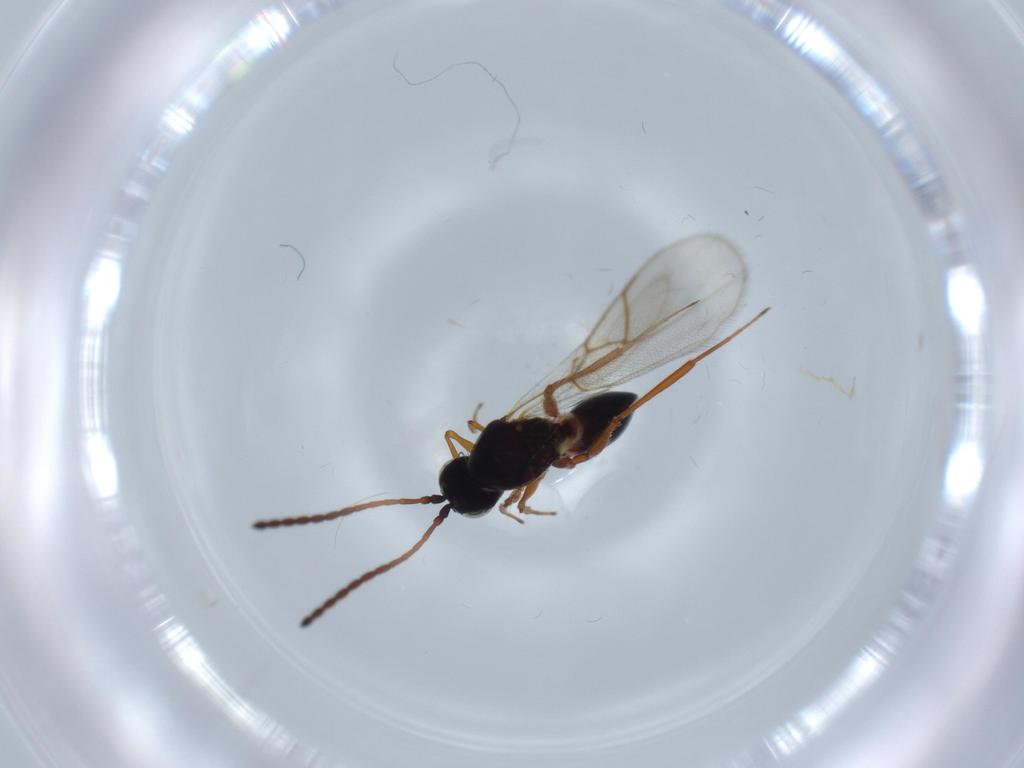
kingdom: Animalia
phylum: Arthropoda
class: Insecta
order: Hymenoptera
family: Figitidae
